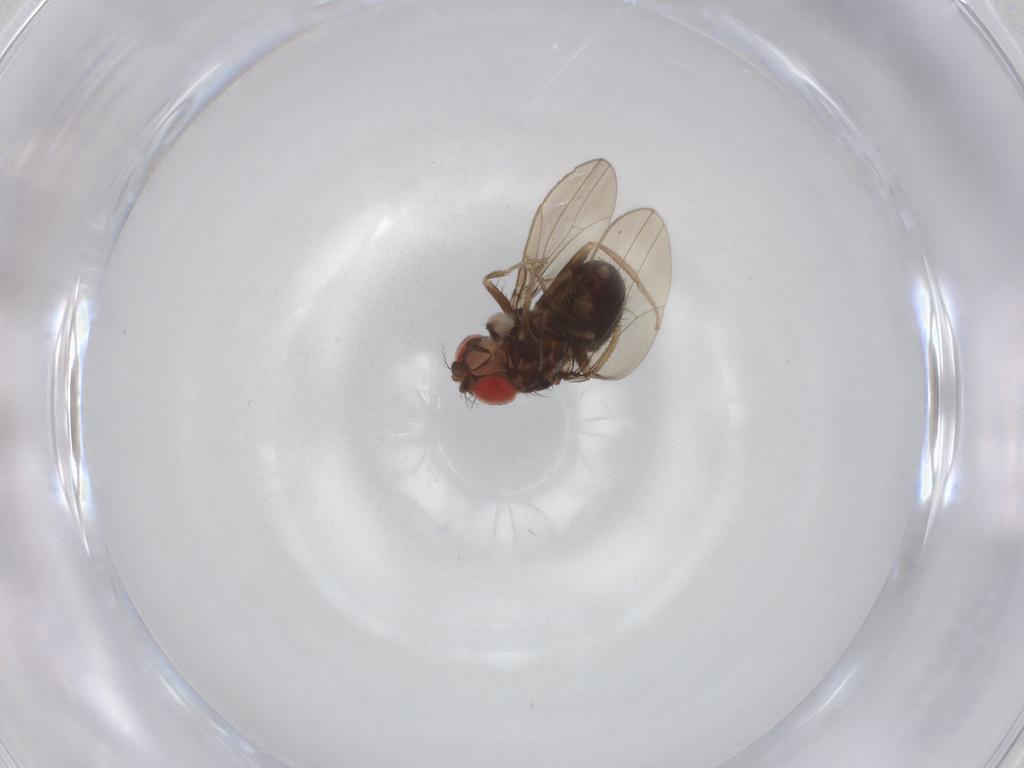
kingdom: Animalia
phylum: Arthropoda
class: Insecta
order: Diptera
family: Drosophilidae
